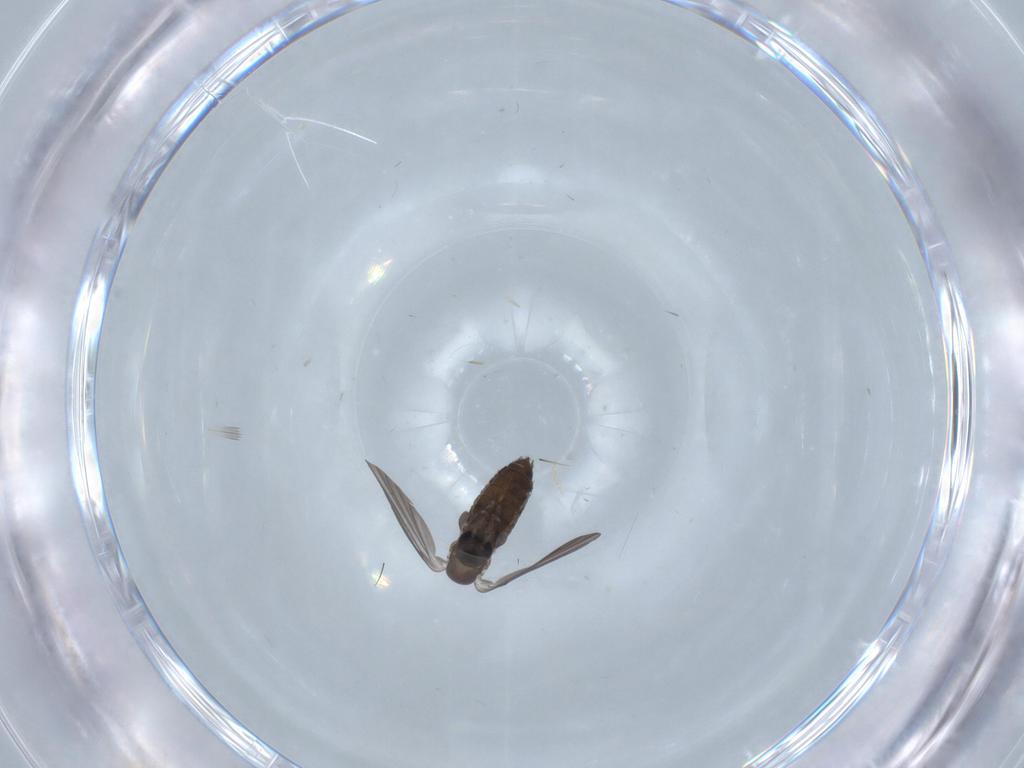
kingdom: Animalia
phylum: Arthropoda
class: Insecta
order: Diptera
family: Psychodidae
